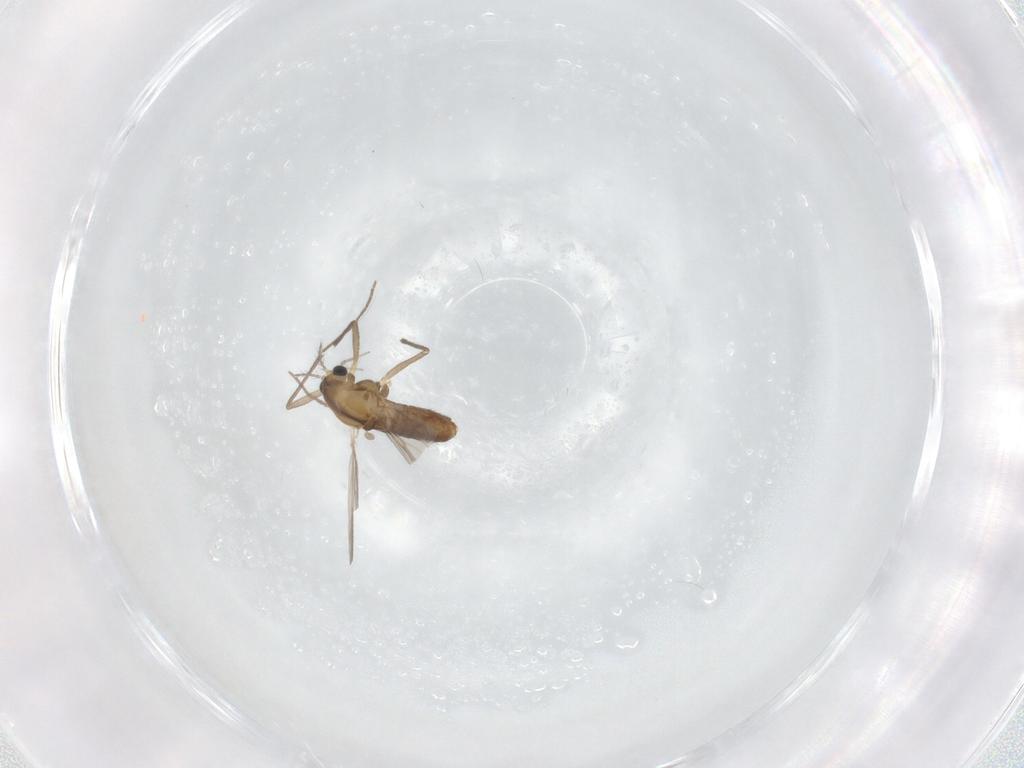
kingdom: Animalia
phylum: Arthropoda
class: Insecta
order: Diptera
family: Chironomidae
